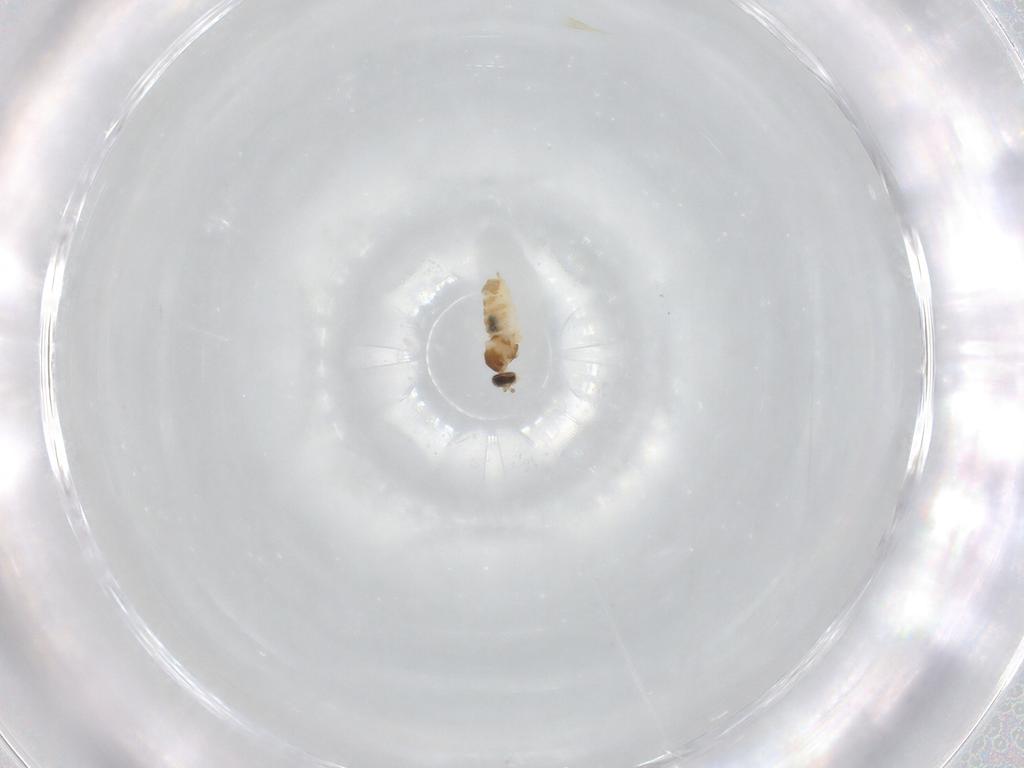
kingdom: Animalia
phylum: Arthropoda
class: Insecta
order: Diptera
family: Cecidomyiidae
